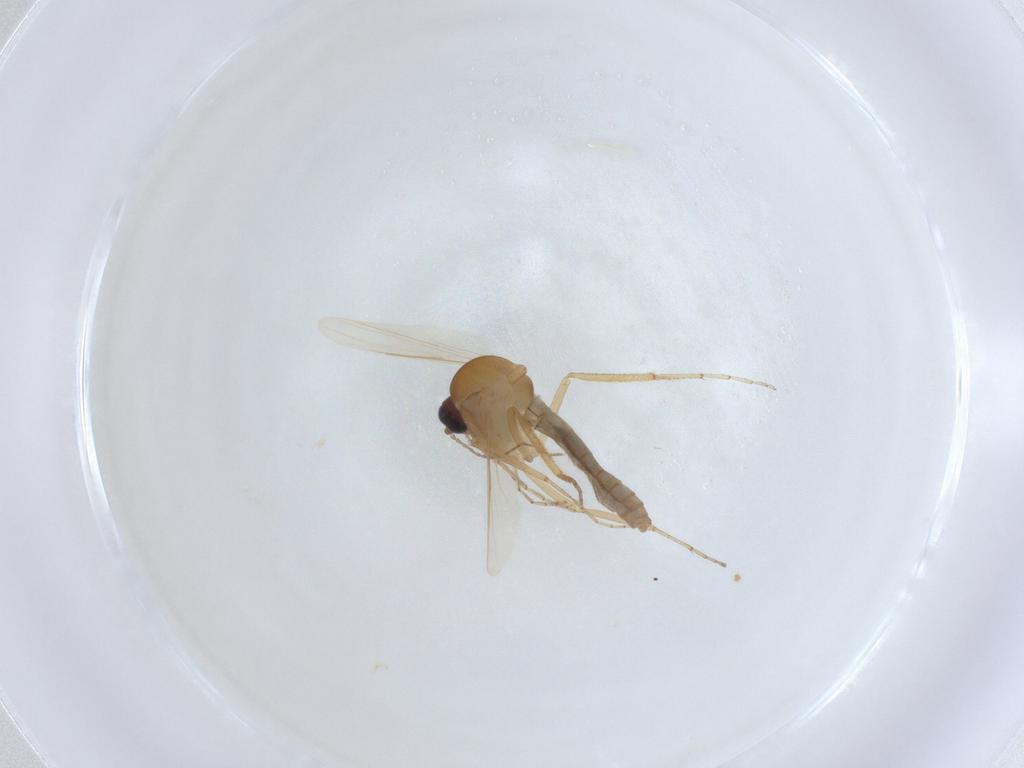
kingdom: Animalia
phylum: Arthropoda
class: Insecta
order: Diptera
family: Ceratopogonidae
